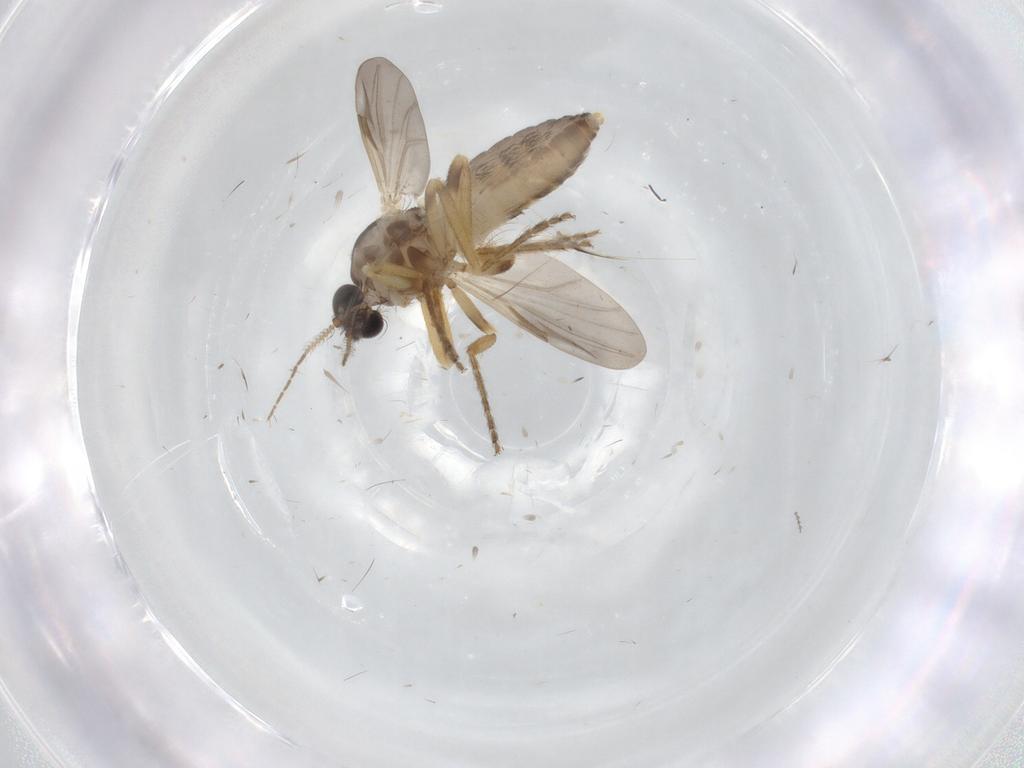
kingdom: Animalia
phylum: Arthropoda
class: Insecta
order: Diptera
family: Ceratopogonidae
